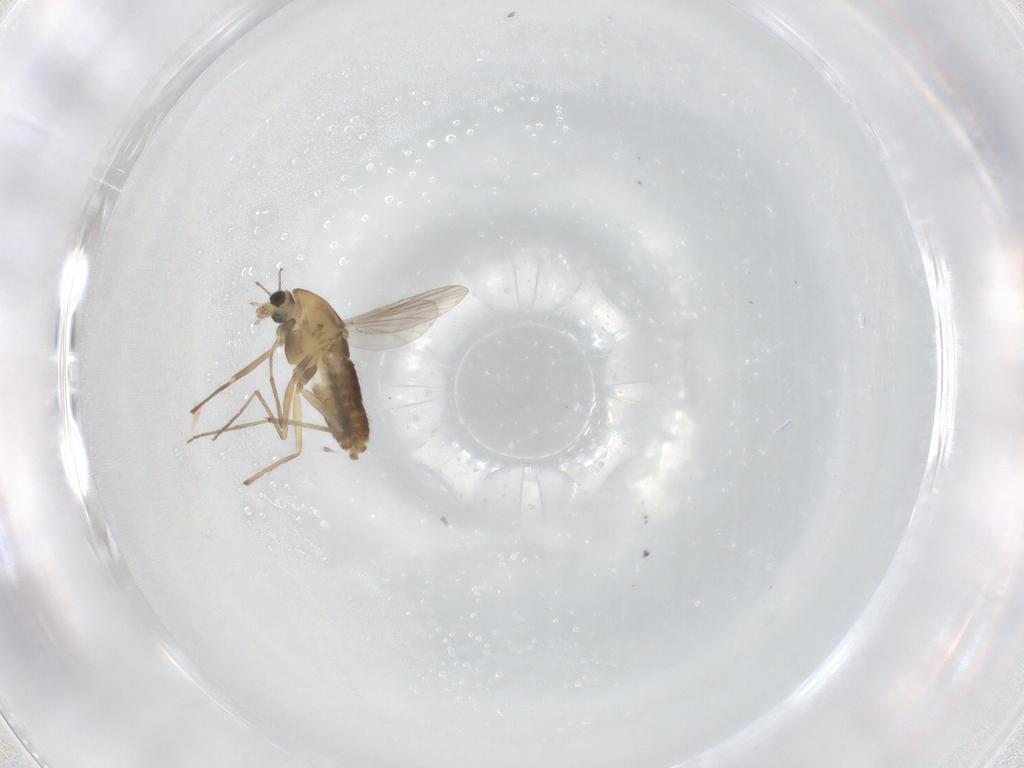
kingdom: Animalia
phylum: Arthropoda
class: Insecta
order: Diptera
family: Chironomidae
